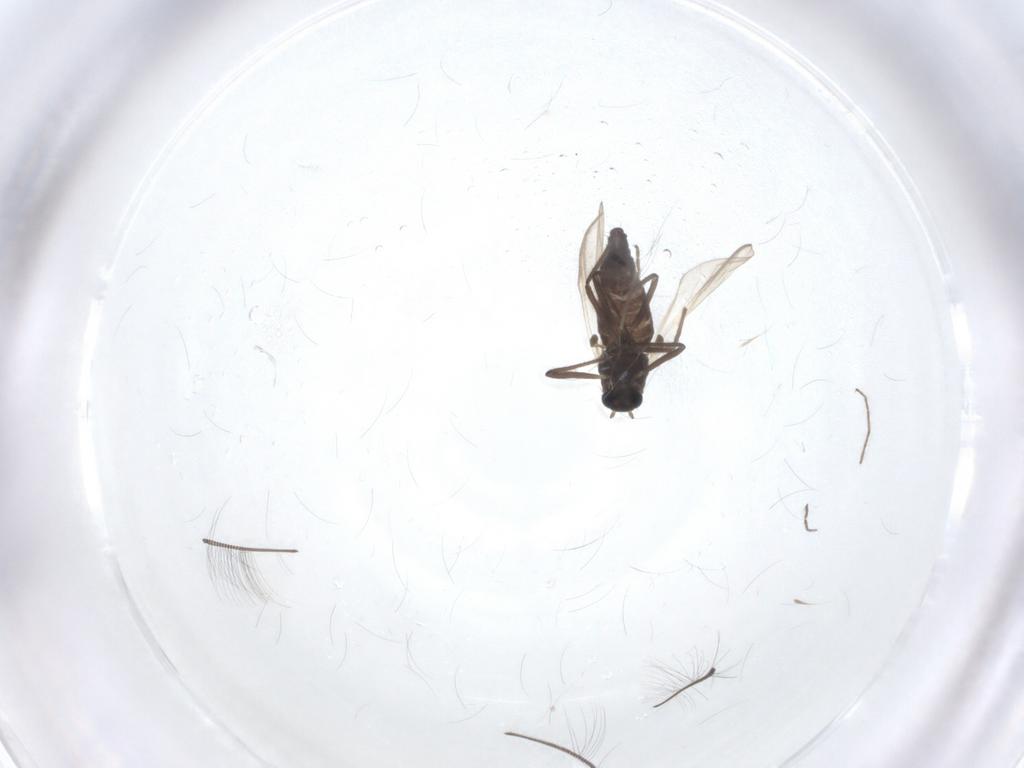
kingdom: Animalia
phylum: Arthropoda
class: Insecta
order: Diptera
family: Chironomidae
